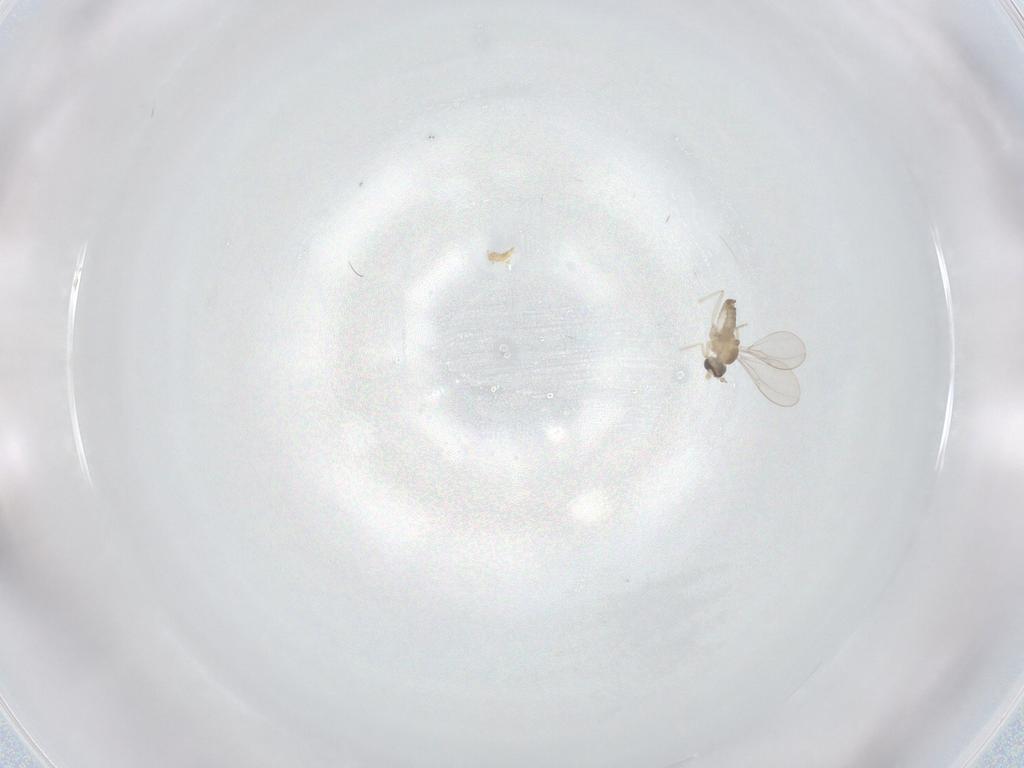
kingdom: Animalia
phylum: Arthropoda
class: Insecta
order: Diptera
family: Cecidomyiidae
